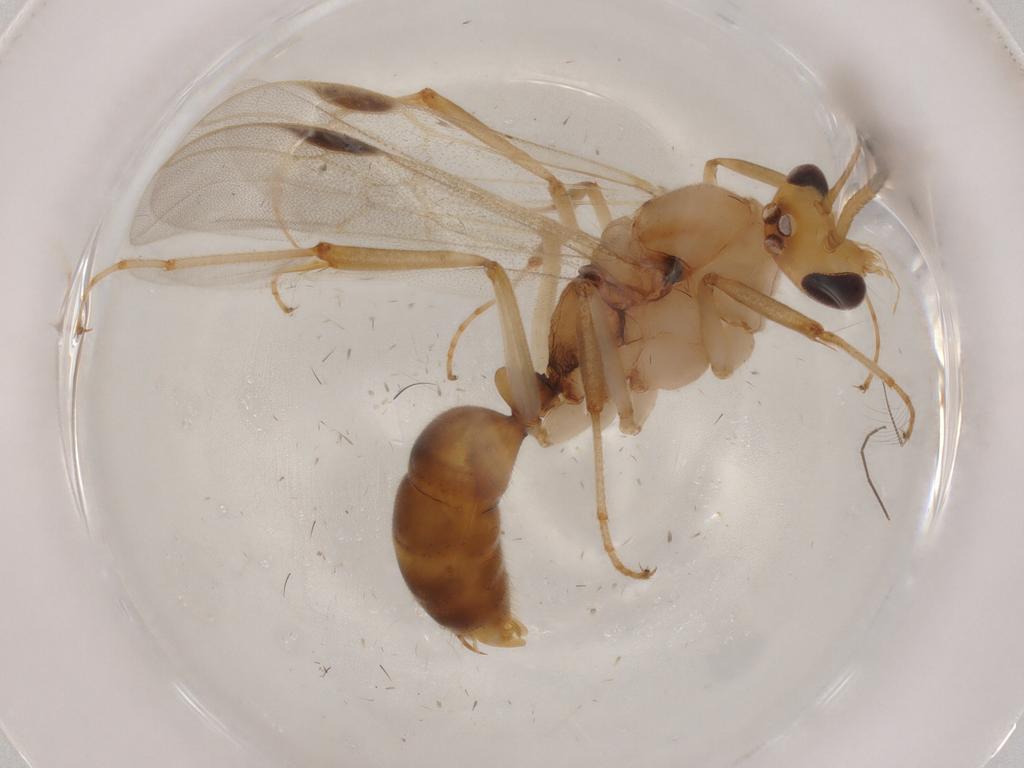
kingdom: Animalia
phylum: Arthropoda
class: Insecta
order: Hymenoptera
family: Formicidae
